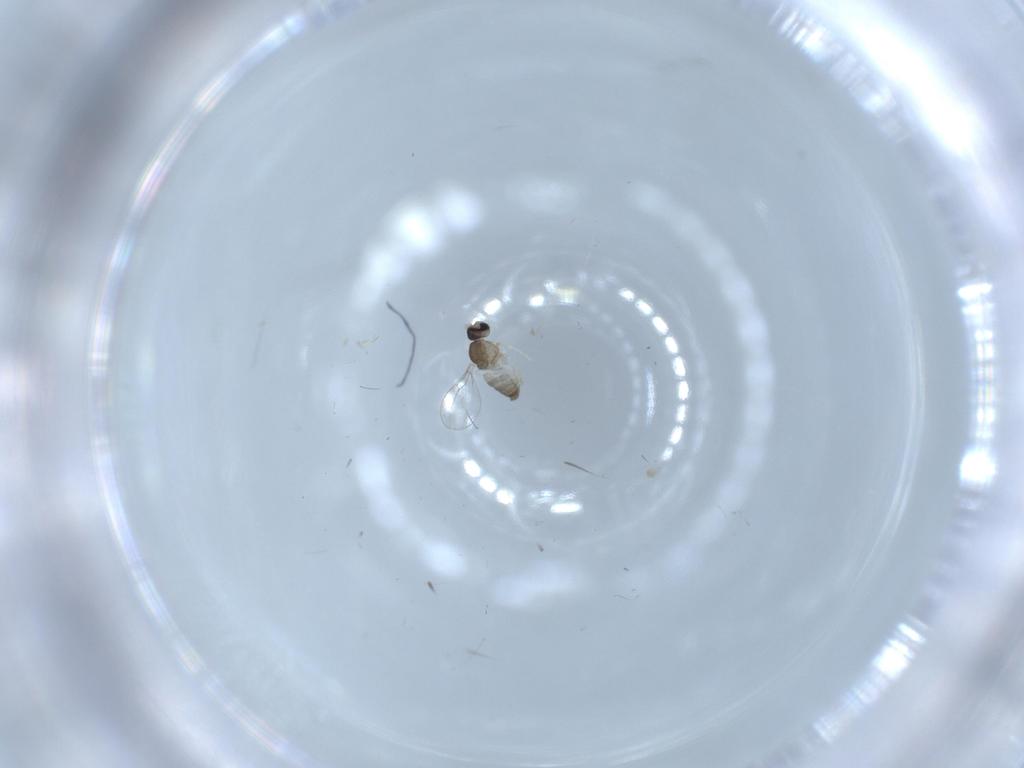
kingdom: Animalia
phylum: Arthropoda
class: Insecta
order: Diptera
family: Cecidomyiidae
